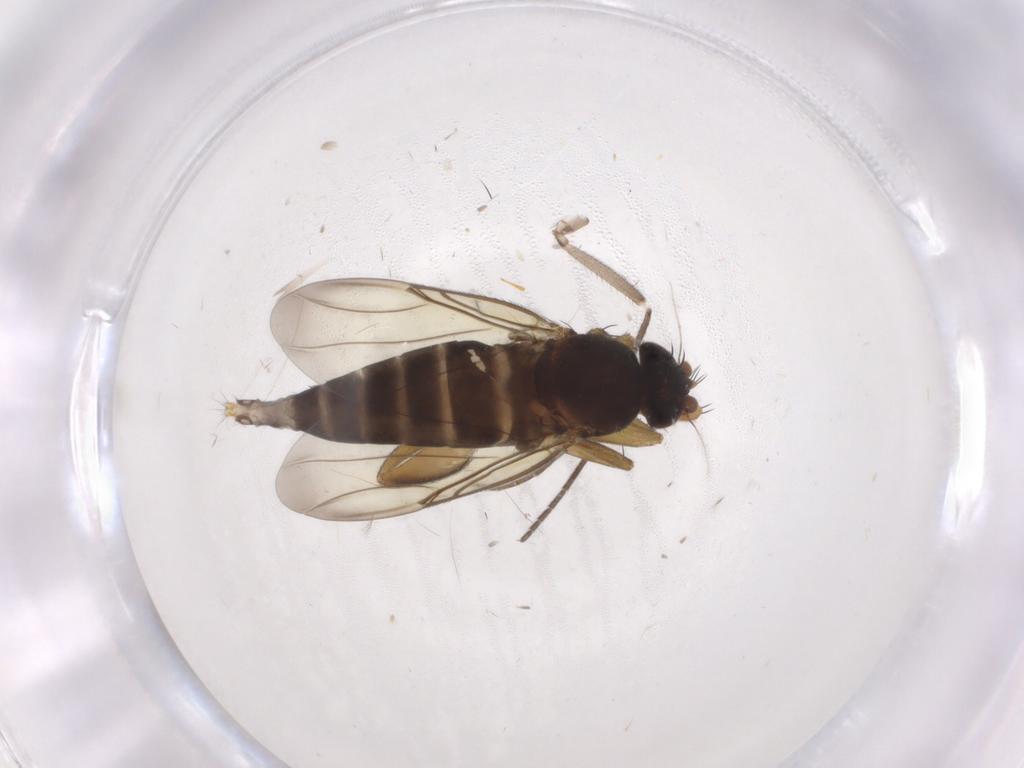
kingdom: Animalia
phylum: Arthropoda
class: Insecta
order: Diptera
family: Phoridae
